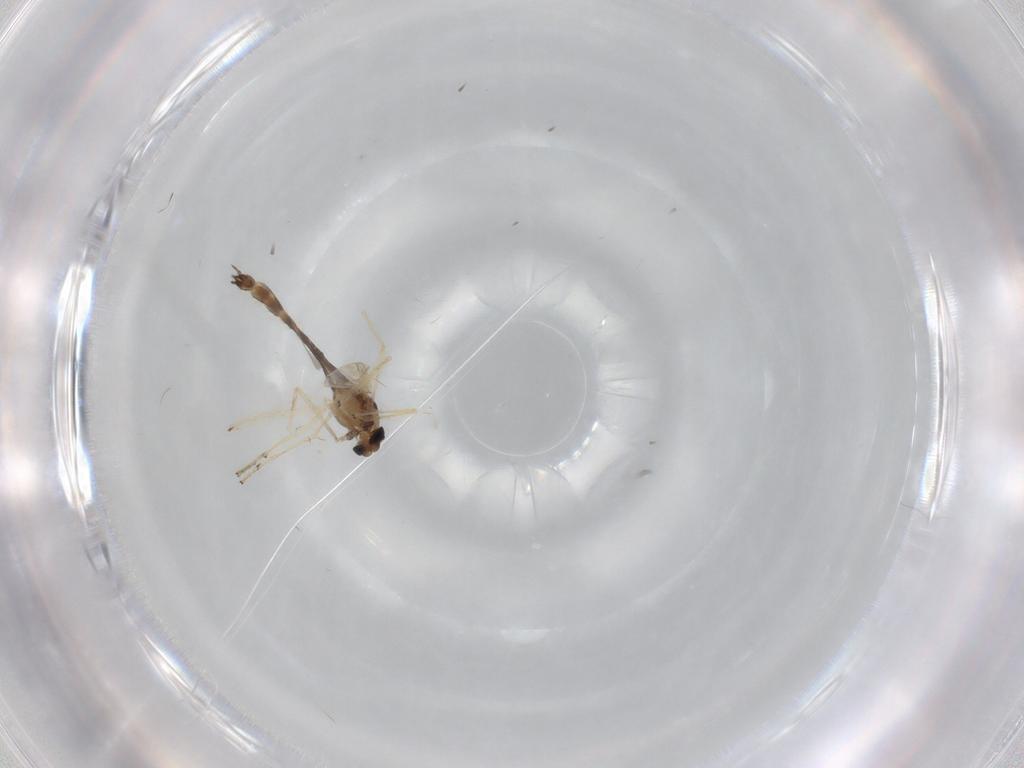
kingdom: Animalia
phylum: Arthropoda
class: Insecta
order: Diptera
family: Chironomidae
